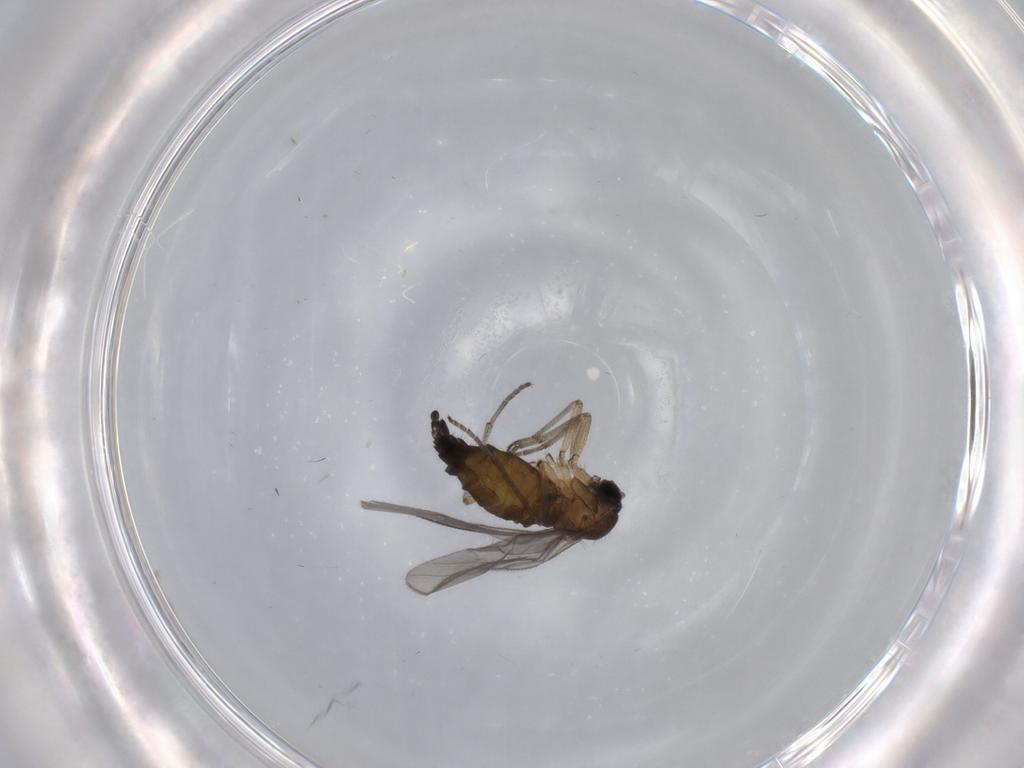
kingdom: Animalia
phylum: Arthropoda
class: Insecta
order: Diptera
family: Sciaridae
